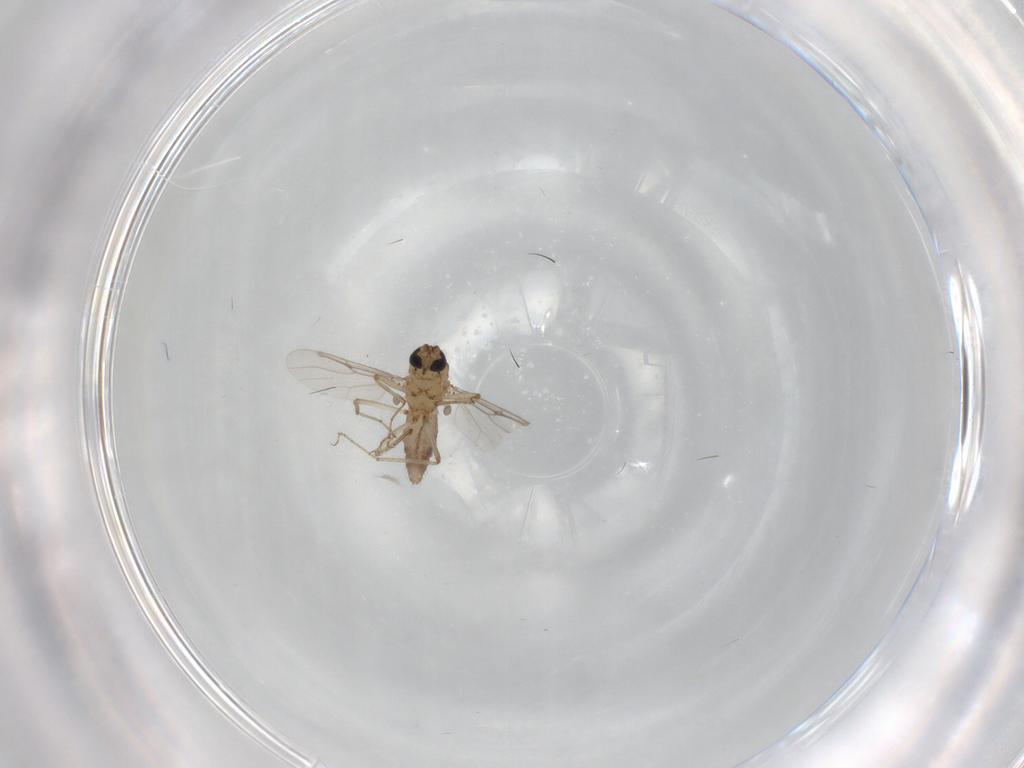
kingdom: Animalia
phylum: Arthropoda
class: Insecta
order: Diptera
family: Ceratopogonidae
